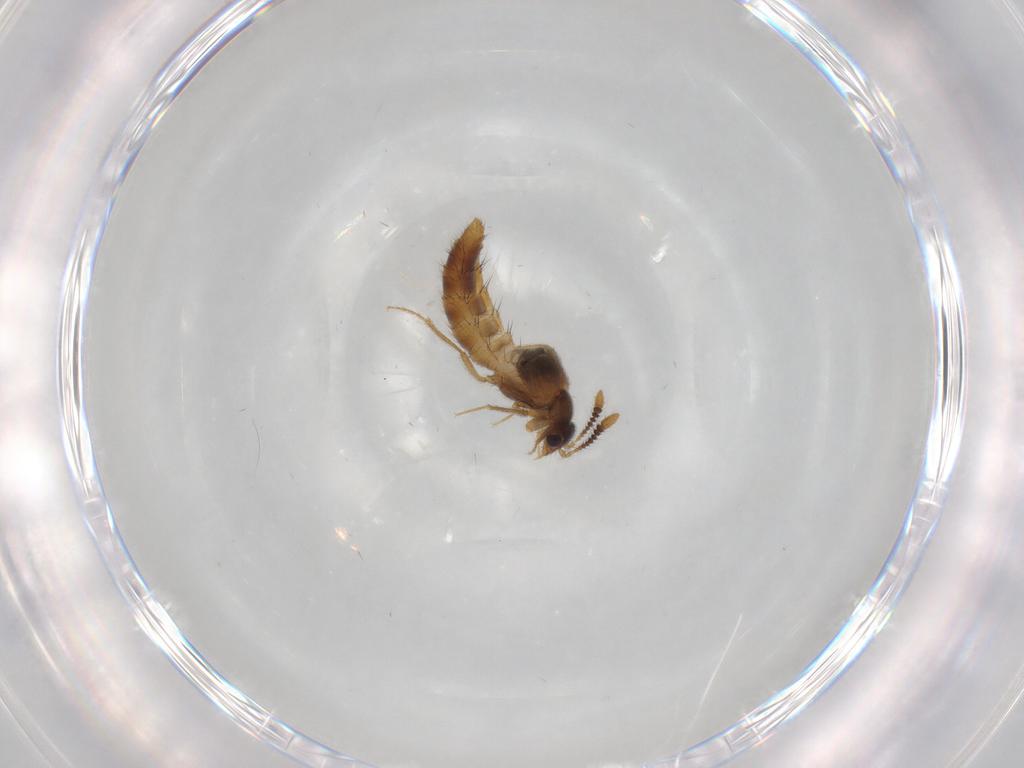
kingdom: Animalia
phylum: Arthropoda
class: Insecta
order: Coleoptera
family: Staphylinidae
